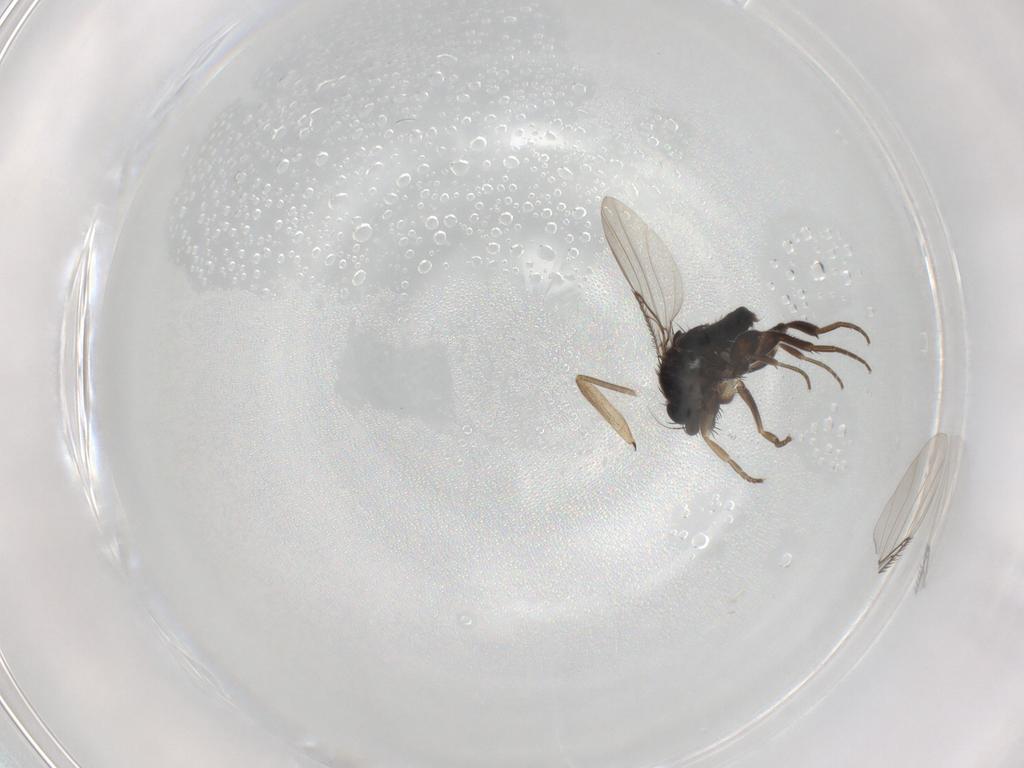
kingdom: Animalia
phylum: Arthropoda
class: Insecta
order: Diptera
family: Phoridae
